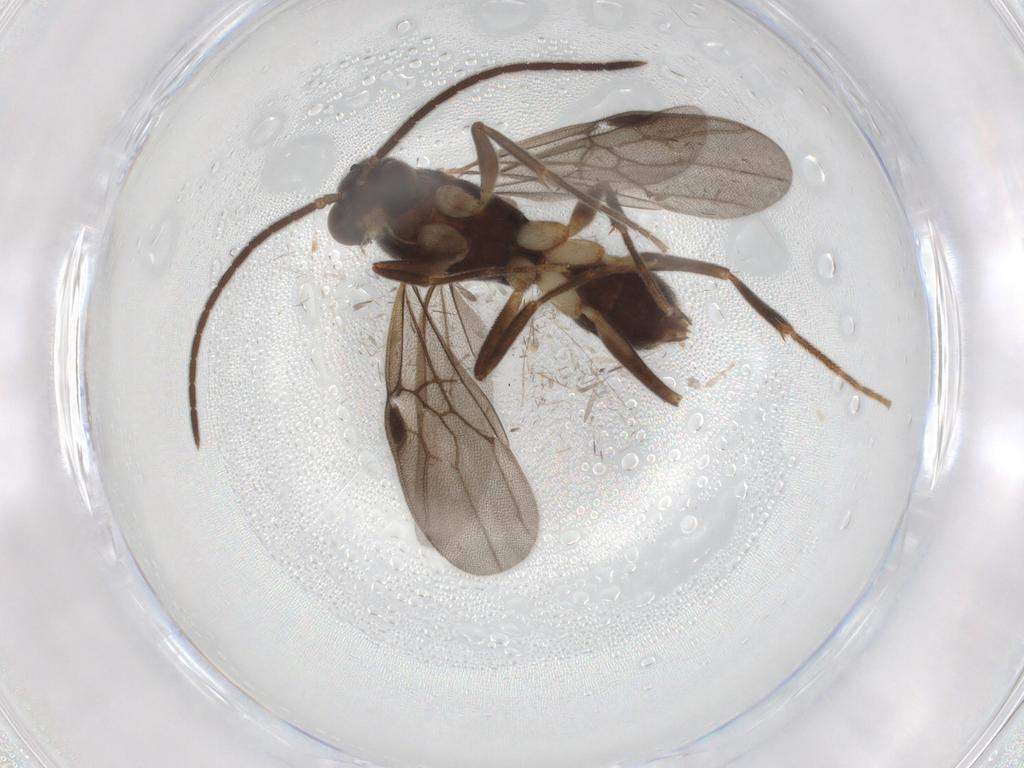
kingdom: Animalia
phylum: Arthropoda
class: Insecta
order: Hymenoptera
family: Formicidae
